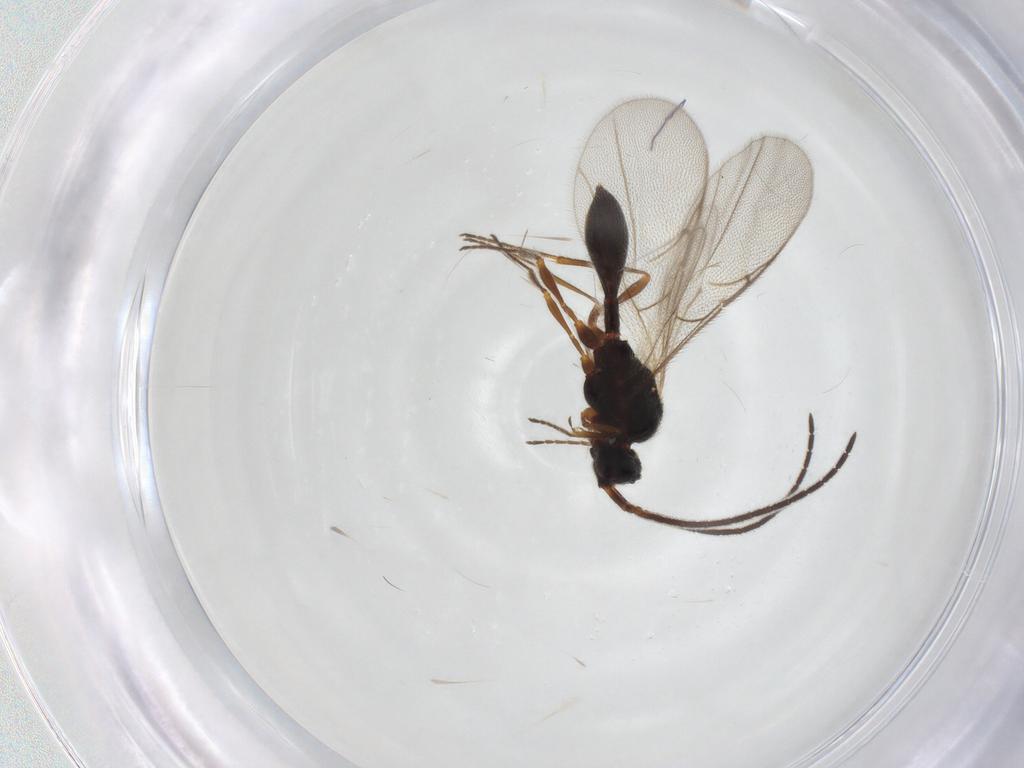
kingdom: Animalia
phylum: Arthropoda
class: Insecta
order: Hymenoptera
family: Diapriidae
